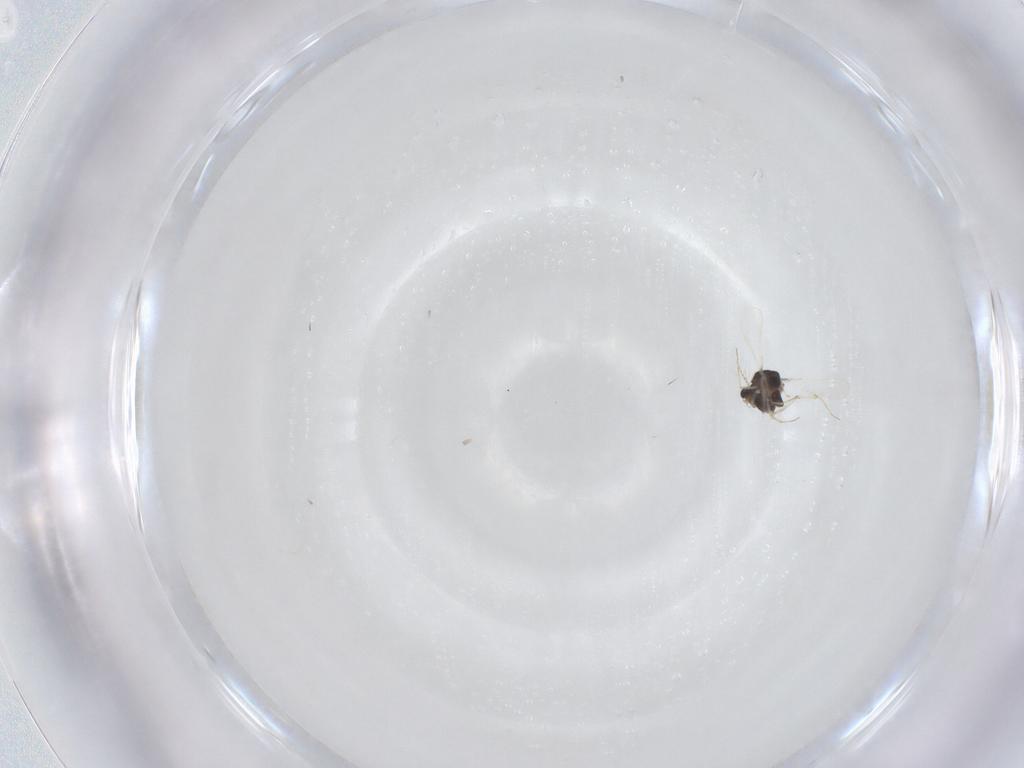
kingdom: Animalia
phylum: Arthropoda
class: Insecta
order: Diptera
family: Chironomidae
